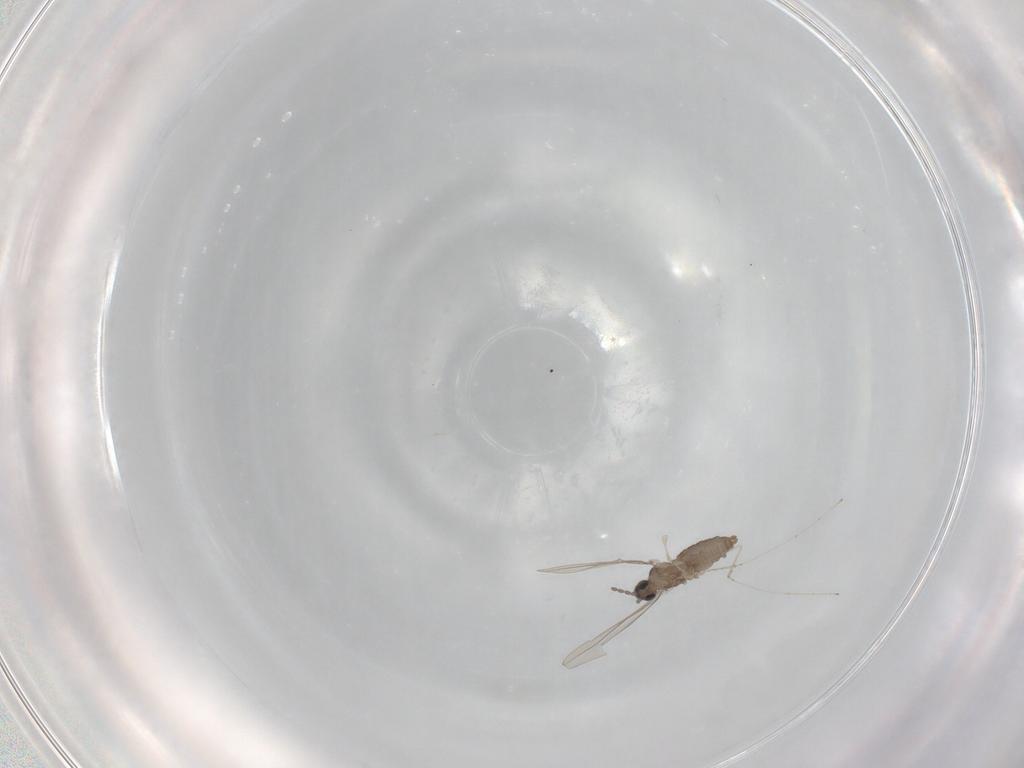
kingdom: Animalia
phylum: Arthropoda
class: Insecta
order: Diptera
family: Cecidomyiidae
